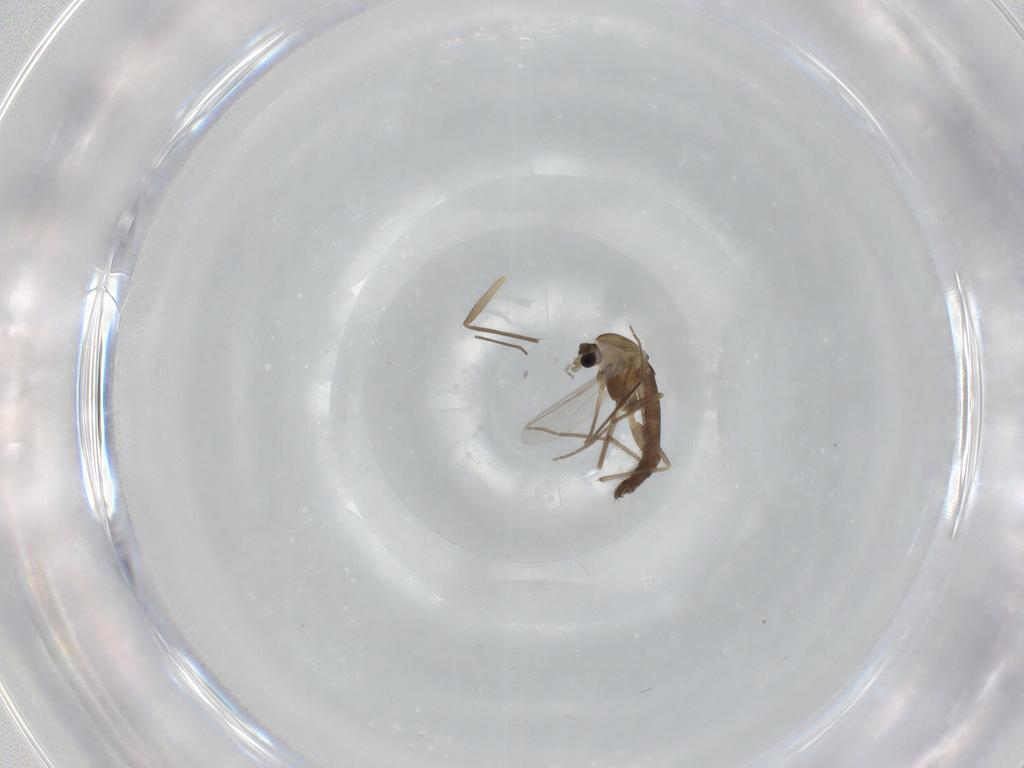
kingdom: Animalia
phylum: Arthropoda
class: Insecta
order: Diptera
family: Chironomidae
